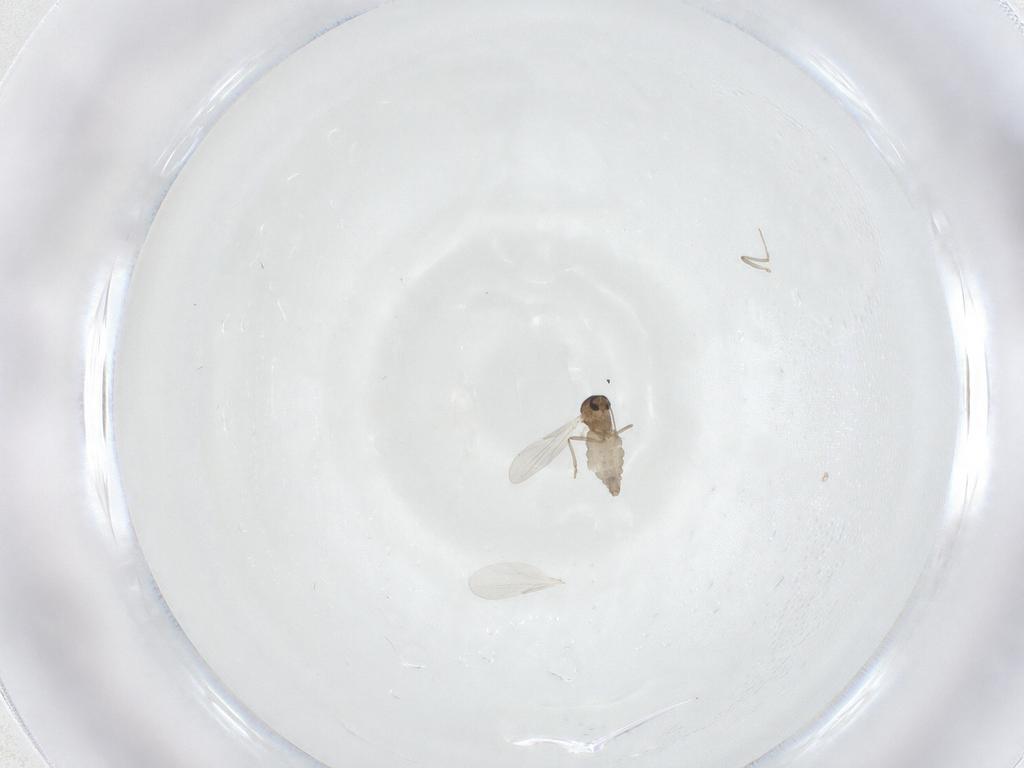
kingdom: Animalia
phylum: Arthropoda
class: Insecta
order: Diptera
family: Ceratopogonidae
